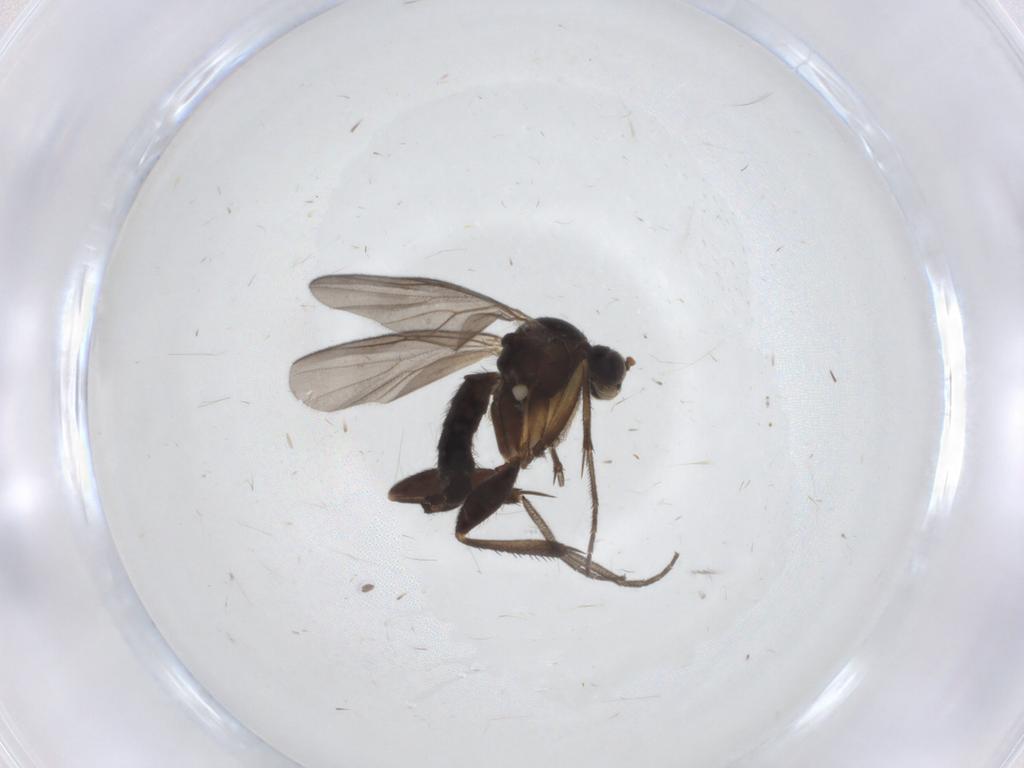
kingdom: Animalia
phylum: Arthropoda
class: Insecta
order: Diptera
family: Mycetophilidae
